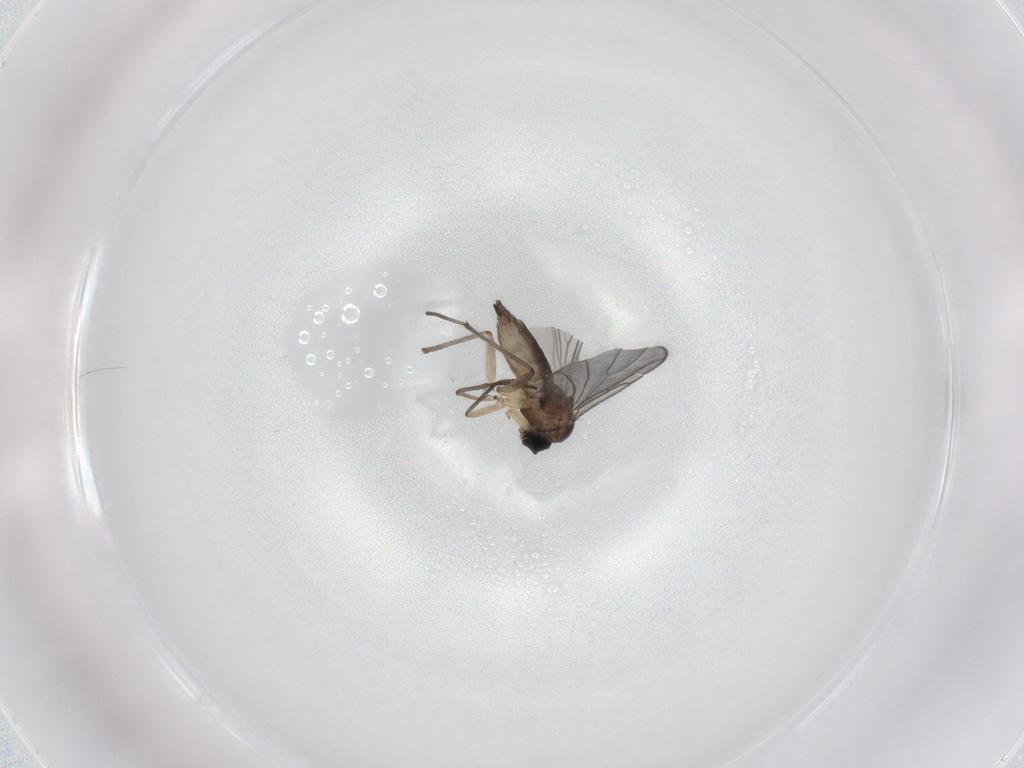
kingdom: Animalia
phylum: Arthropoda
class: Insecta
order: Diptera
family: Sciaridae
